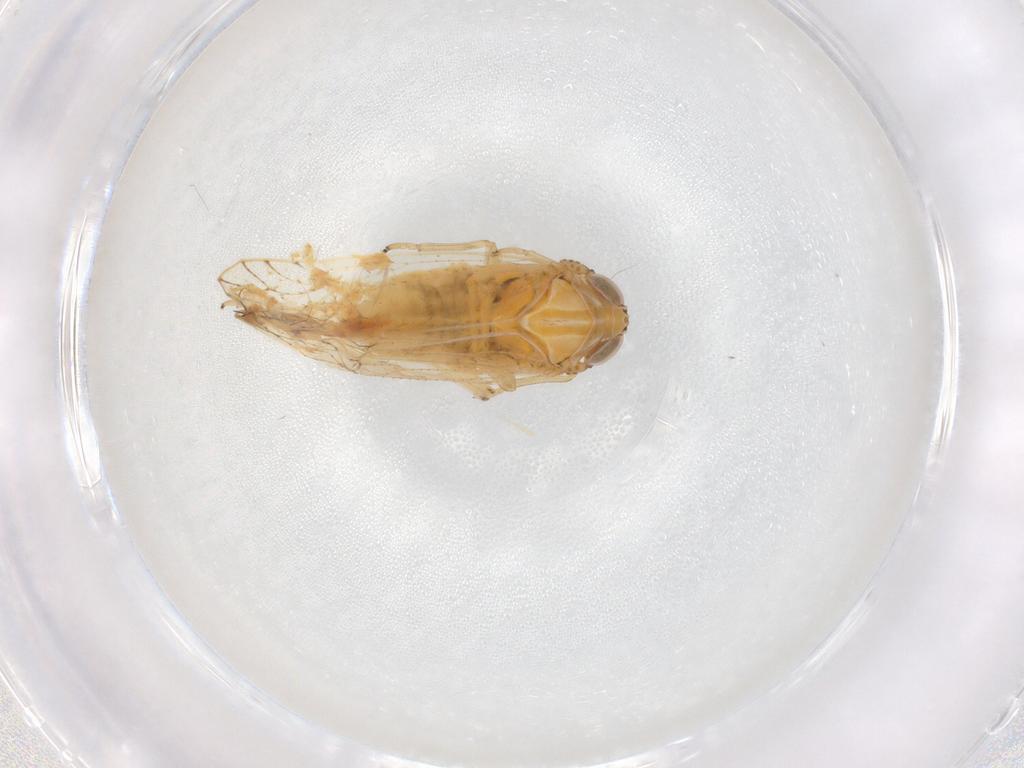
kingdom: Animalia
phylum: Arthropoda
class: Insecta
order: Hemiptera
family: Delphacidae
